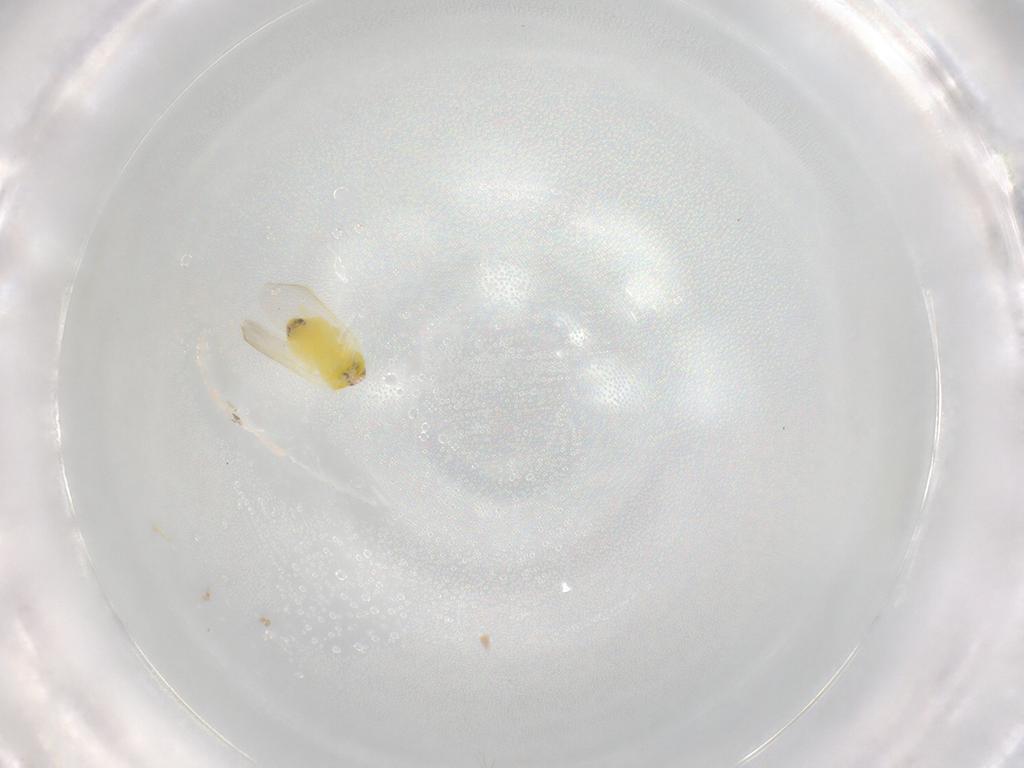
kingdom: Animalia
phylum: Arthropoda
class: Insecta
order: Hemiptera
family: Aleyrodidae
